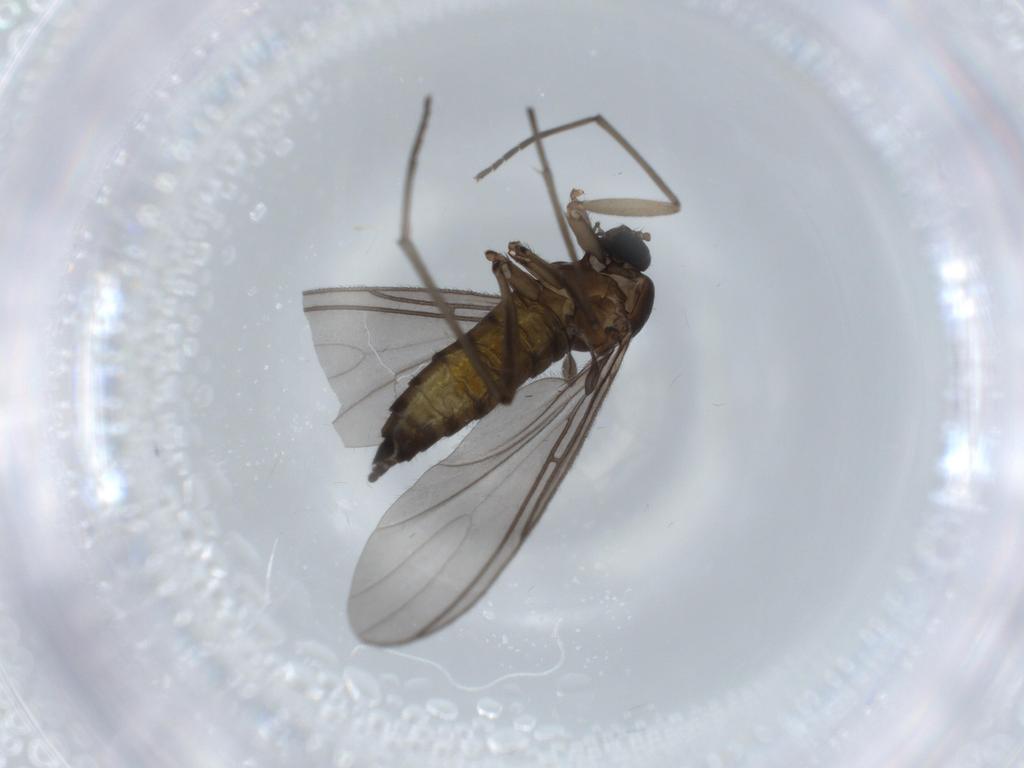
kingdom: Animalia
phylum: Arthropoda
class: Insecta
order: Diptera
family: Sciaridae
